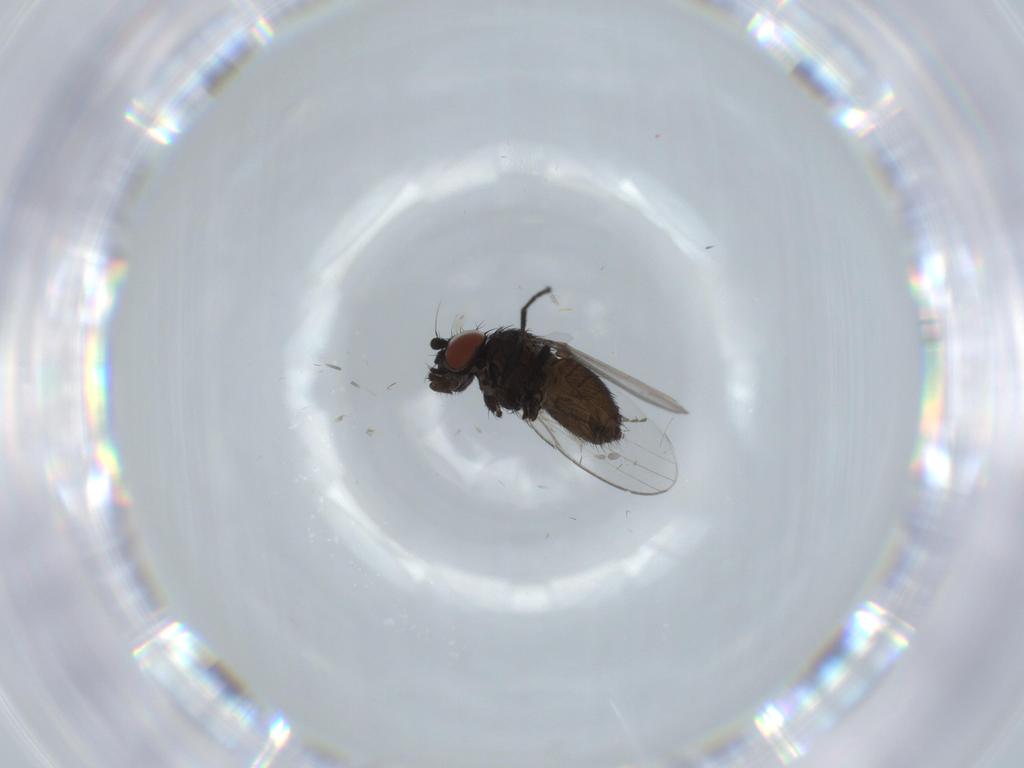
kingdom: Animalia
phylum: Arthropoda
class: Insecta
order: Diptera
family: Milichiidae
